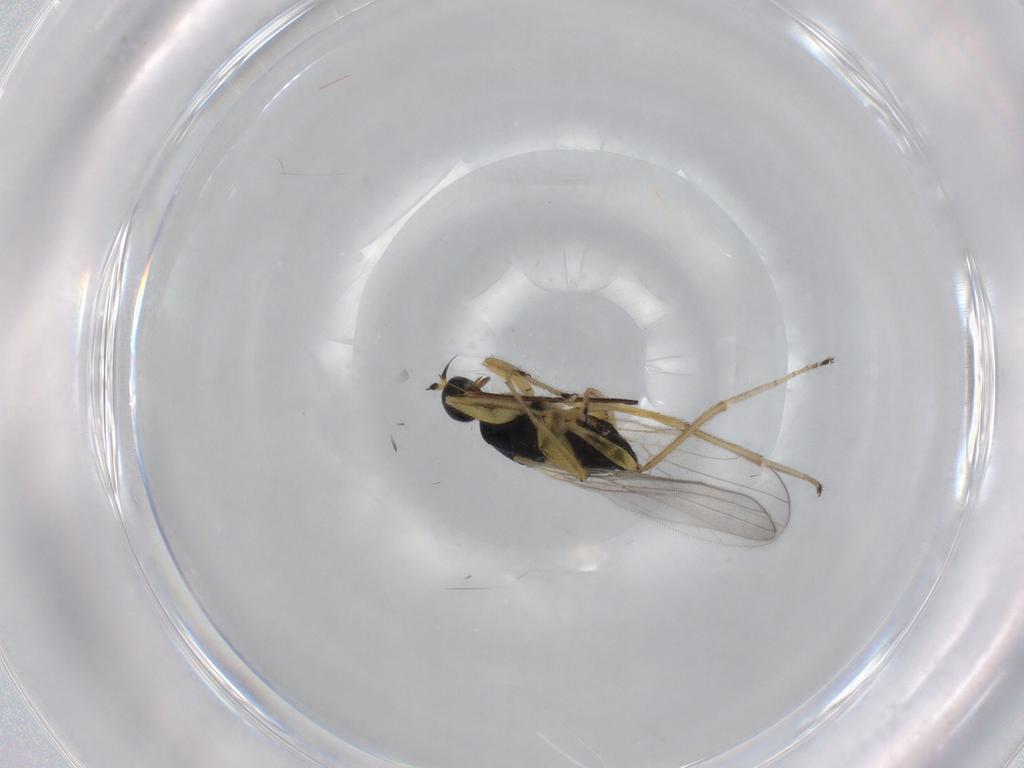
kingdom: Animalia
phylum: Arthropoda
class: Insecta
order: Diptera
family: Hybotidae
